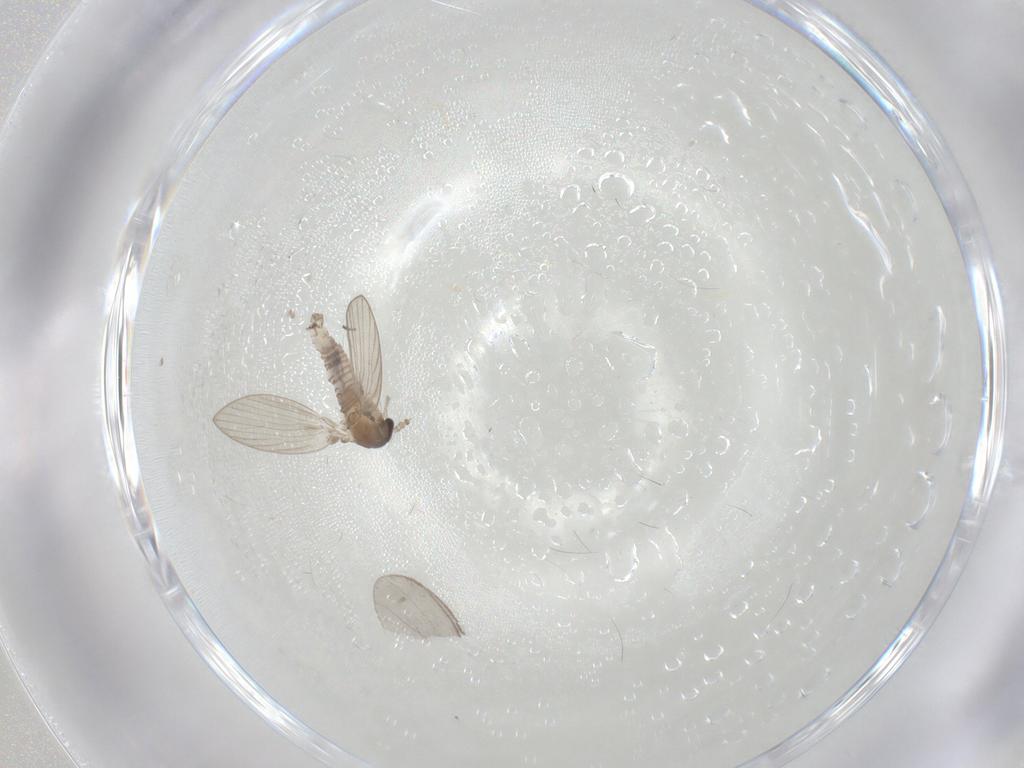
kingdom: Animalia
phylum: Arthropoda
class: Insecta
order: Diptera
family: Psychodidae
